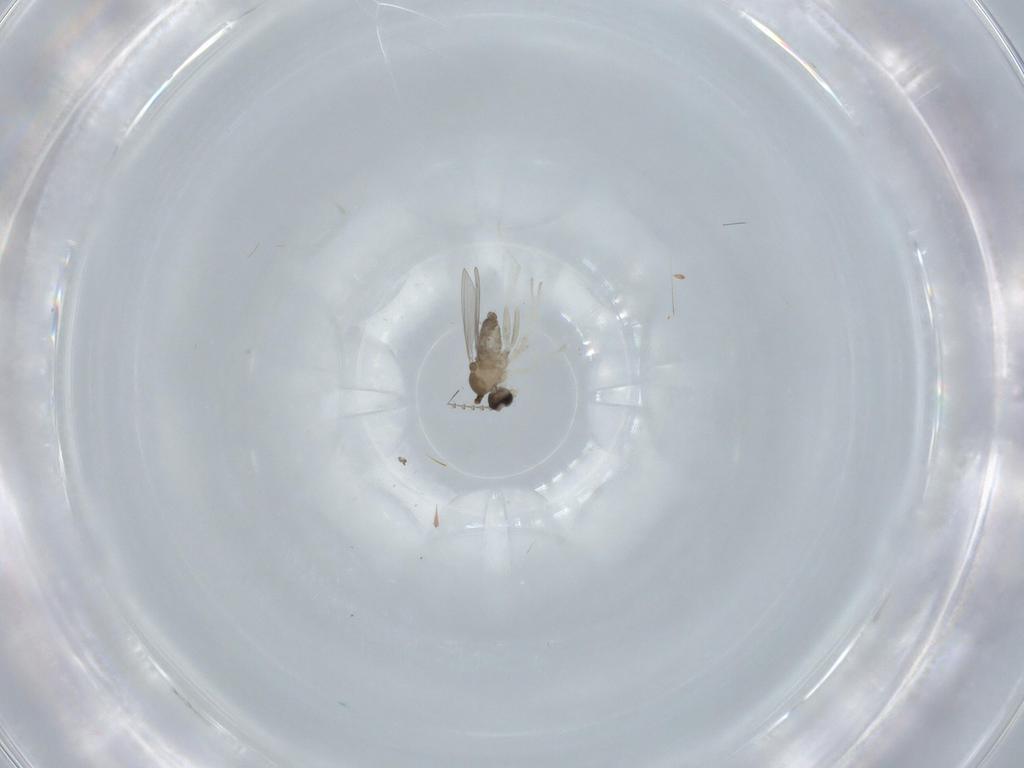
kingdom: Animalia
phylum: Arthropoda
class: Insecta
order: Diptera
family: Cecidomyiidae
